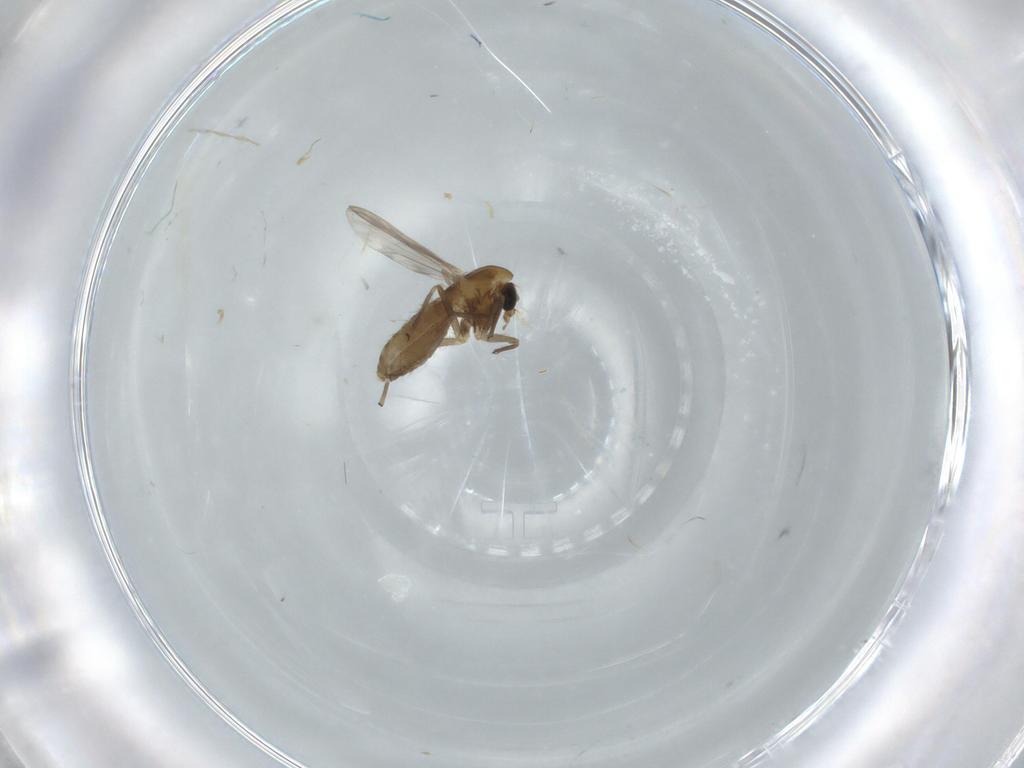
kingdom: Animalia
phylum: Arthropoda
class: Insecta
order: Diptera
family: Chironomidae
